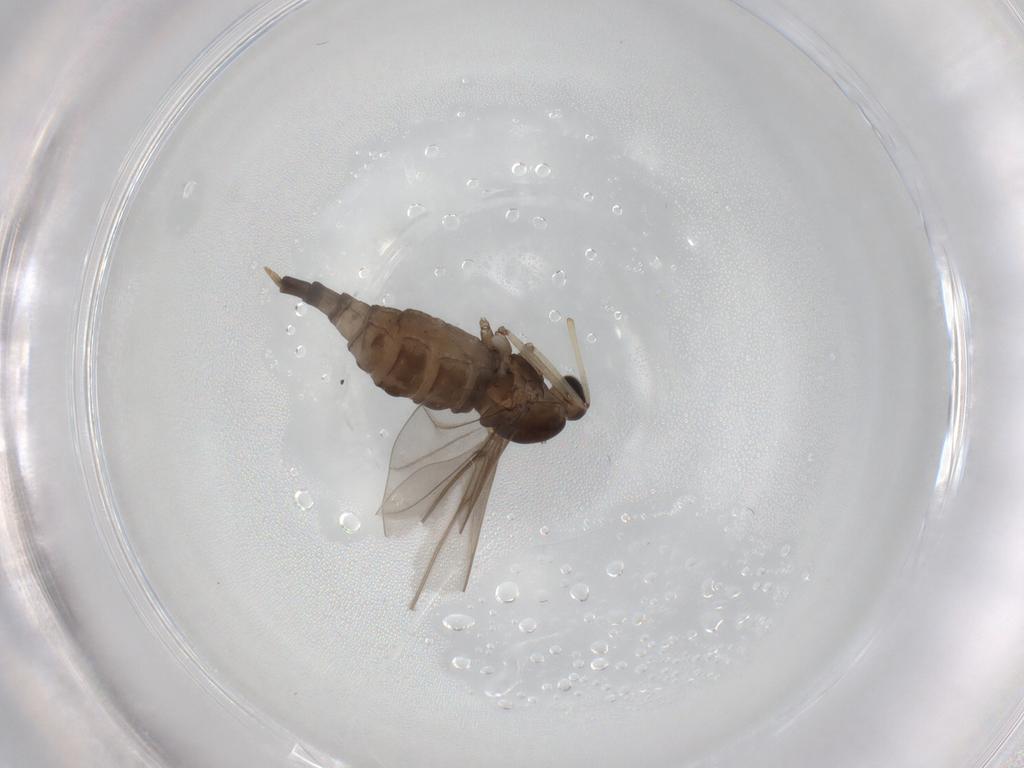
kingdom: Animalia
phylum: Arthropoda
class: Insecta
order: Diptera
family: Cecidomyiidae
